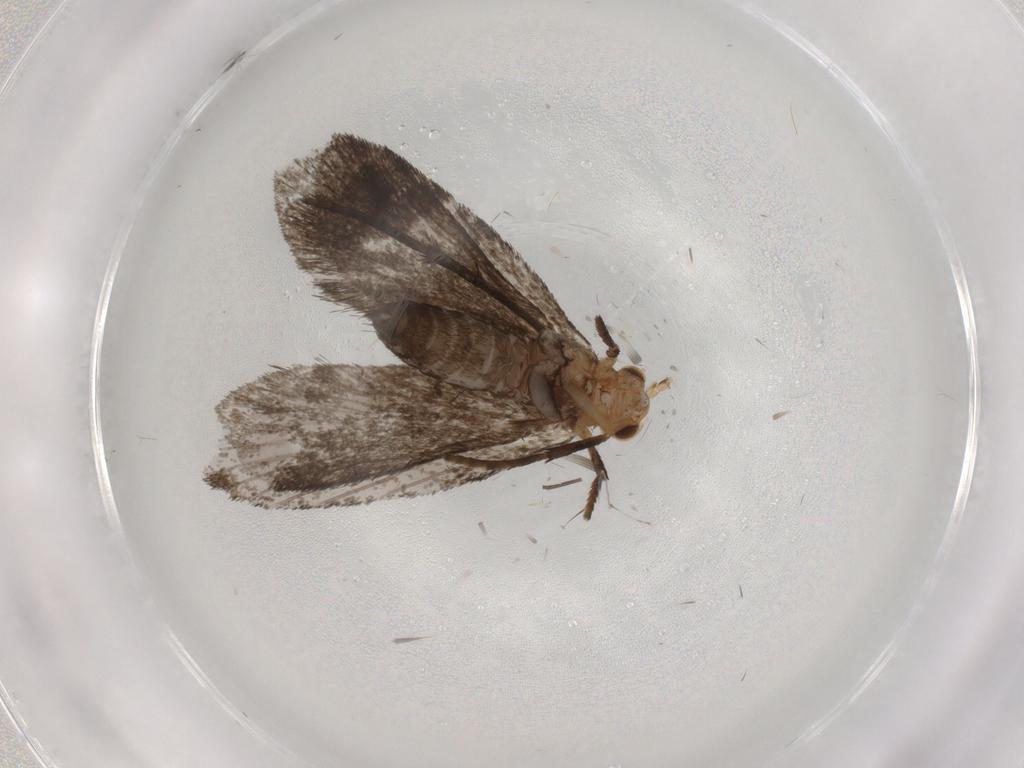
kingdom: Animalia
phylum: Arthropoda
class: Insecta
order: Lepidoptera
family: Micropterigidae
